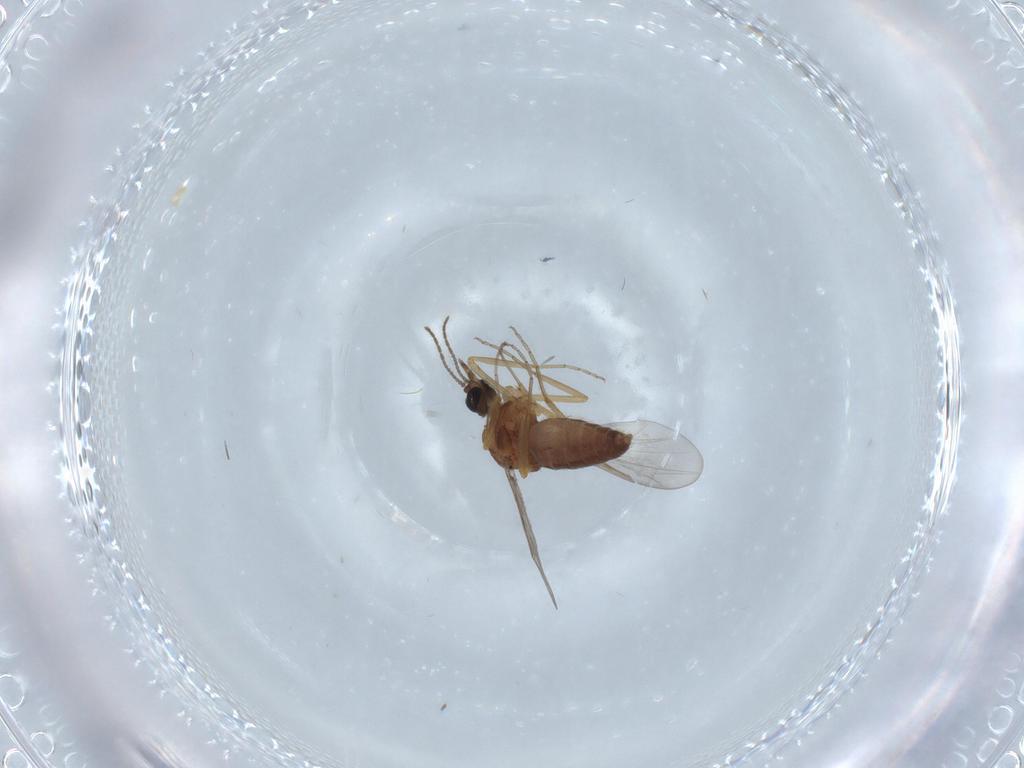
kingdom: Animalia
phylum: Arthropoda
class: Insecta
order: Diptera
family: Ceratopogonidae
